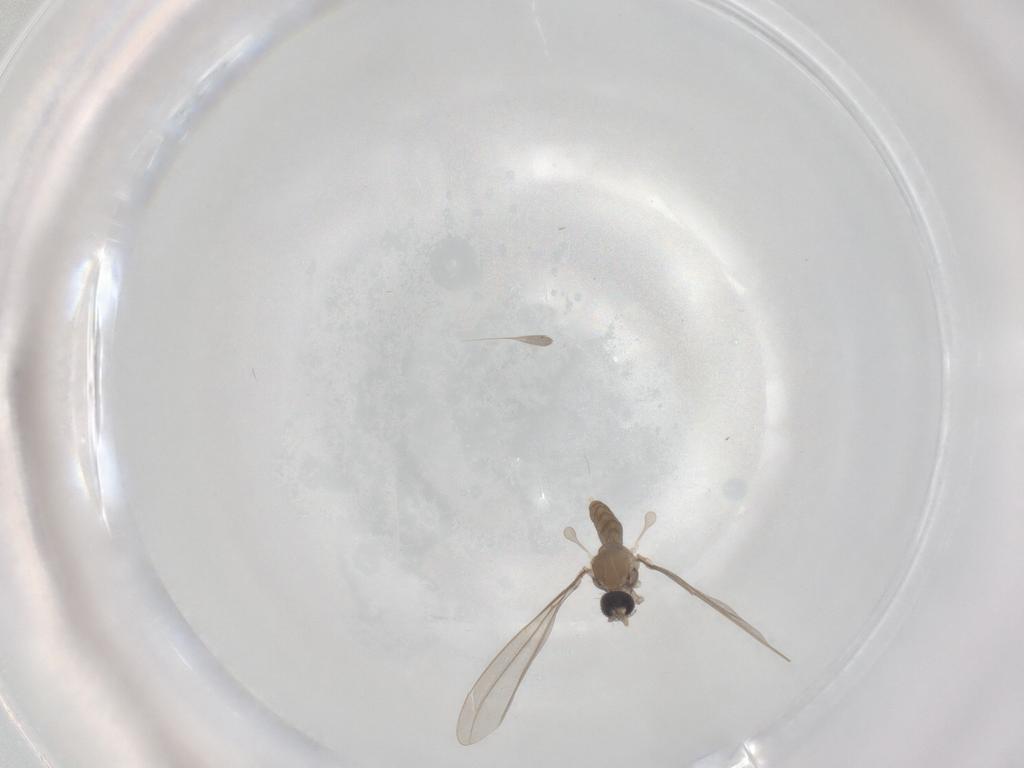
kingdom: Animalia
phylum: Arthropoda
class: Insecta
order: Diptera
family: Cecidomyiidae
